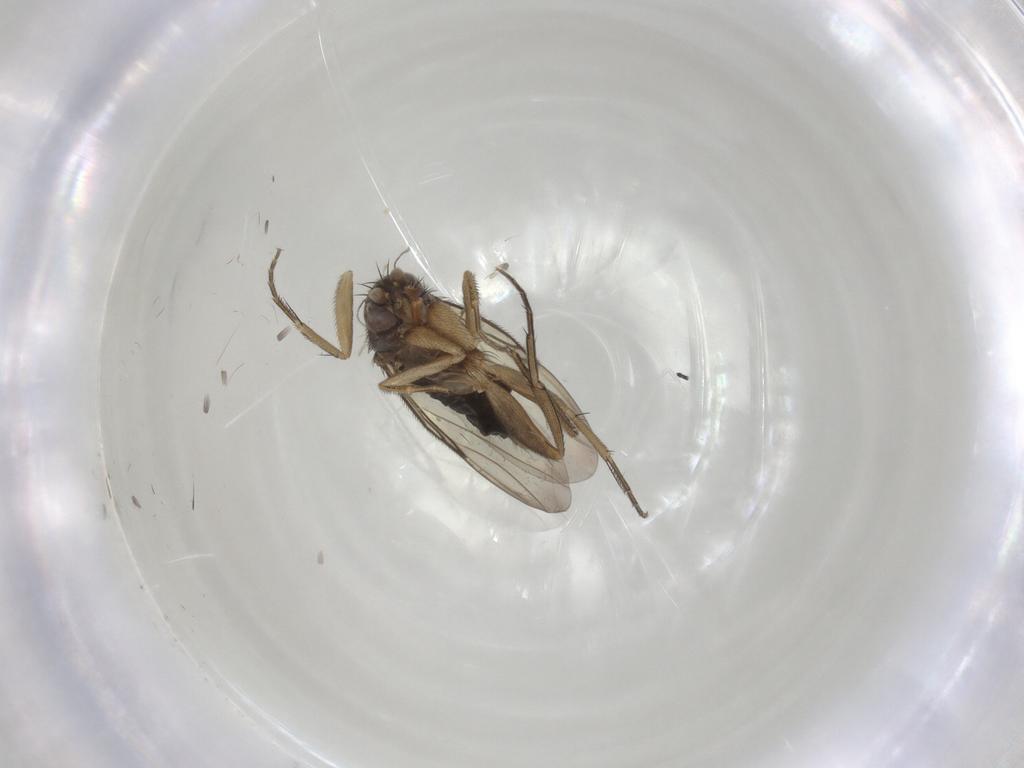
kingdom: Animalia
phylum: Arthropoda
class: Insecta
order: Diptera
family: Phoridae
